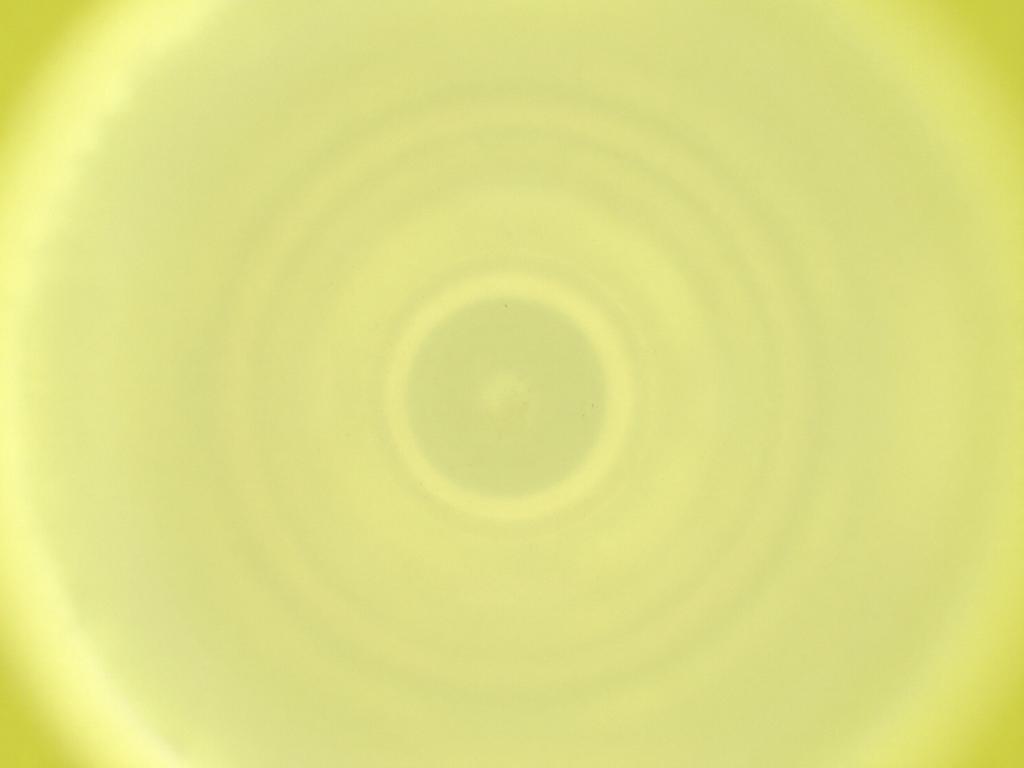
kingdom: Animalia
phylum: Arthropoda
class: Insecta
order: Diptera
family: Cecidomyiidae
